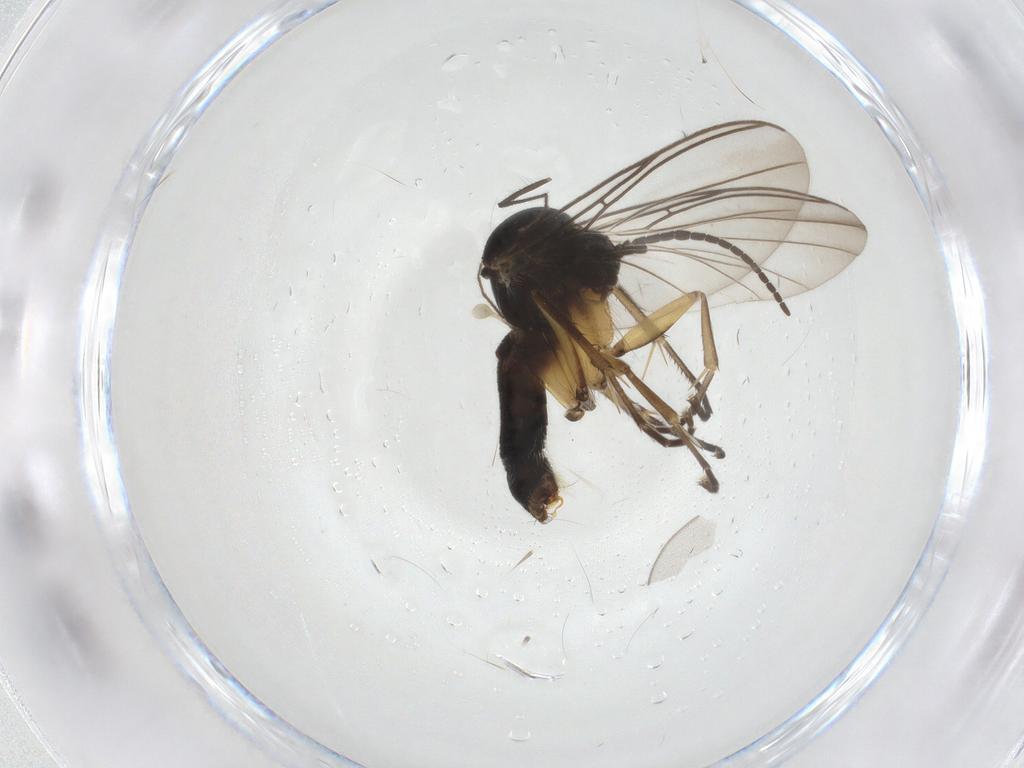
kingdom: Animalia
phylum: Arthropoda
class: Insecta
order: Diptera
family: Mycetophilidae
